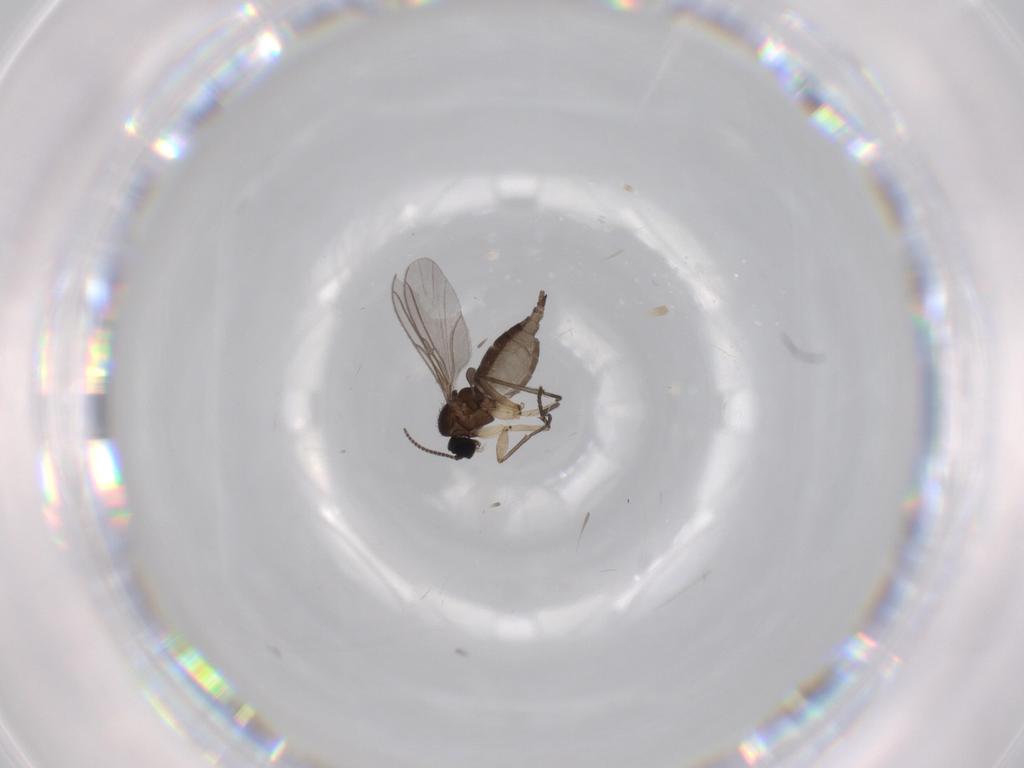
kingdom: Animalia
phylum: Arthropoda
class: Insecta
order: Diptera
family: Sciaridae
